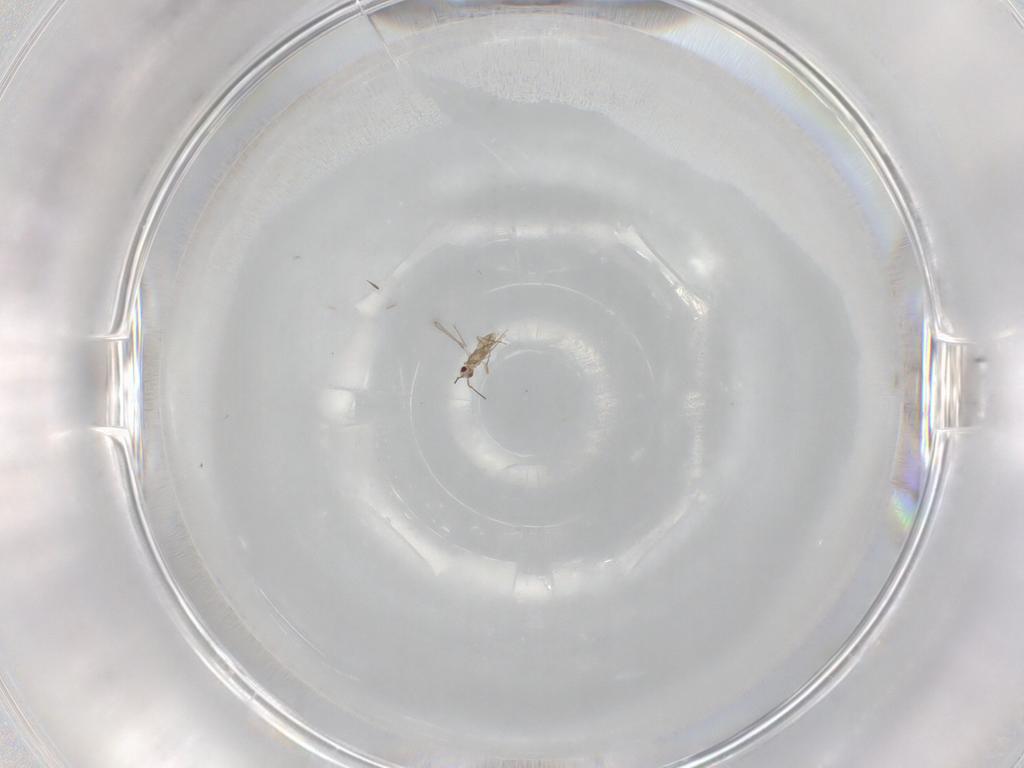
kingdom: Animalia
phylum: Arthropoda
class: Insecta
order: Hymenoptera
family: Mymaridae
